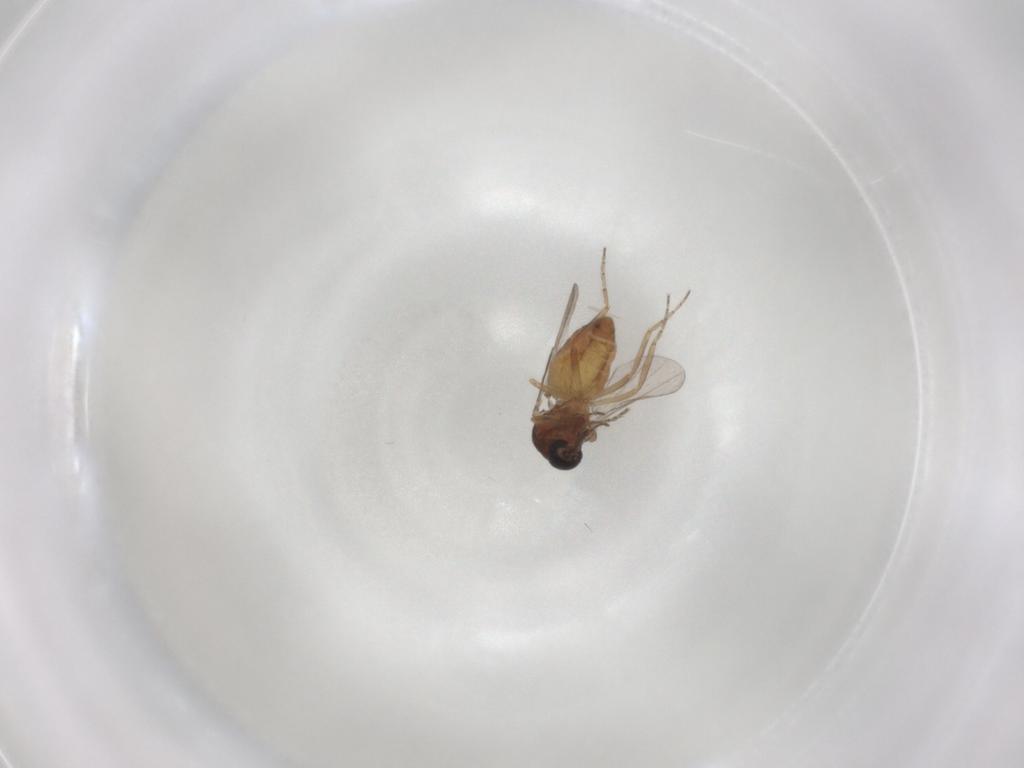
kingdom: Animalia
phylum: Arthropoda
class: Insecta
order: Diptera
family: Ceratopogonidae
